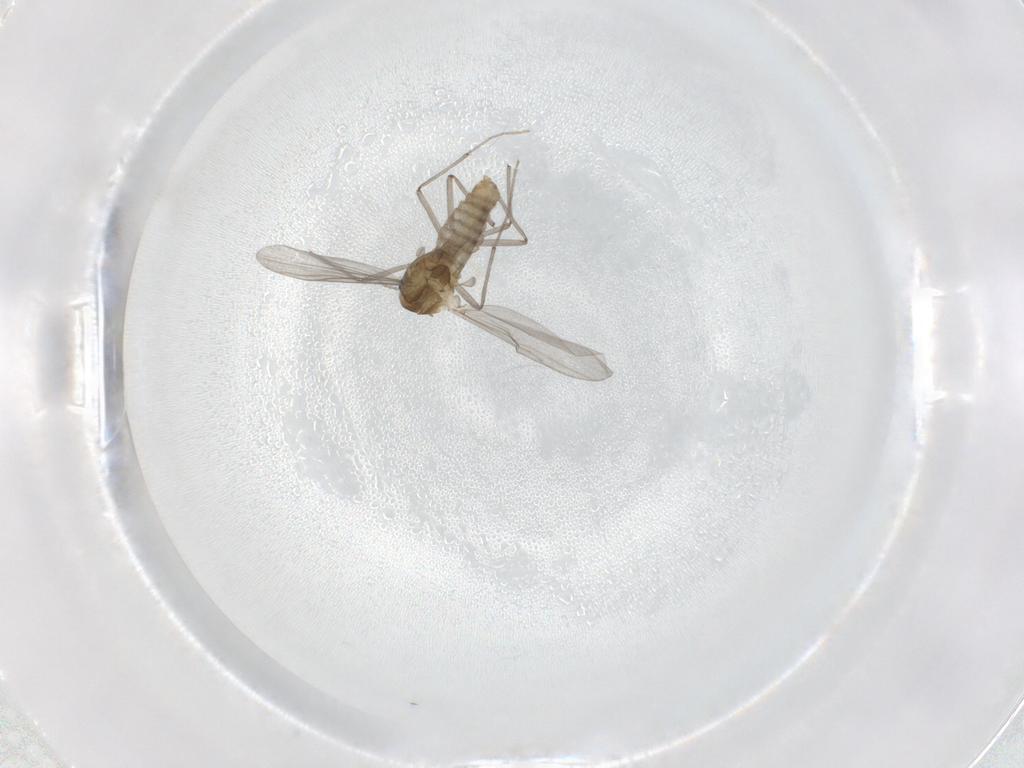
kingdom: Animalia
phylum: Arthropoda
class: Insecta
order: Diptera
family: Chironomidae
